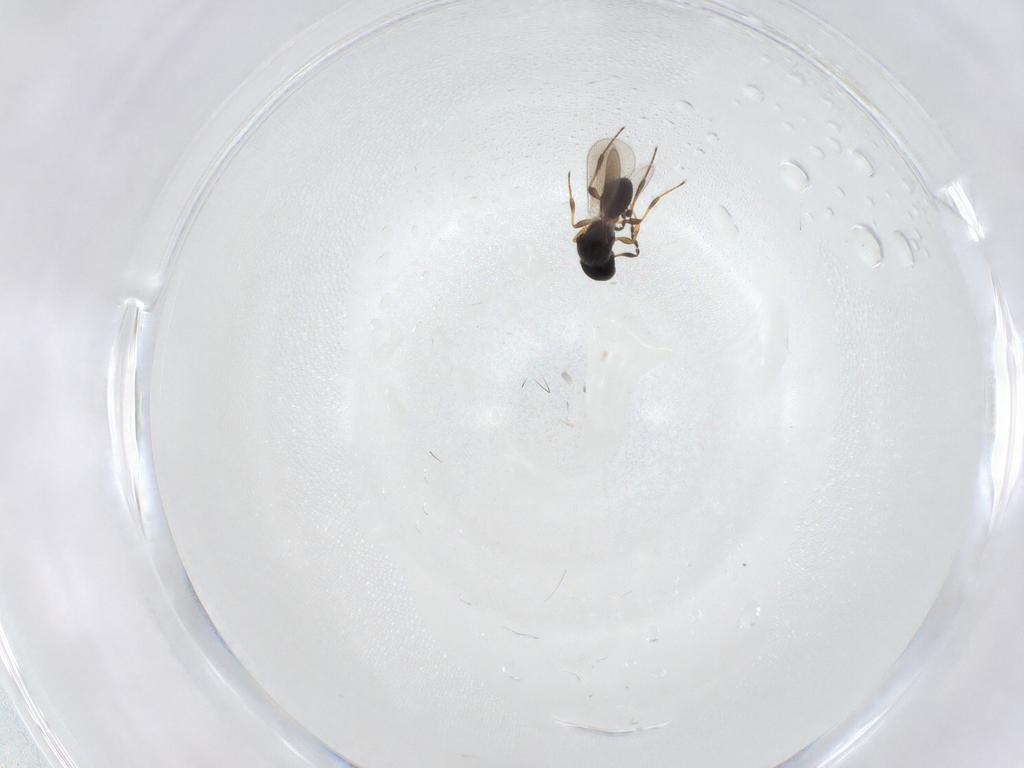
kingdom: Animalia
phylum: Arthropoda
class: Insecta
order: Hymenoptera
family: Platygastridae
